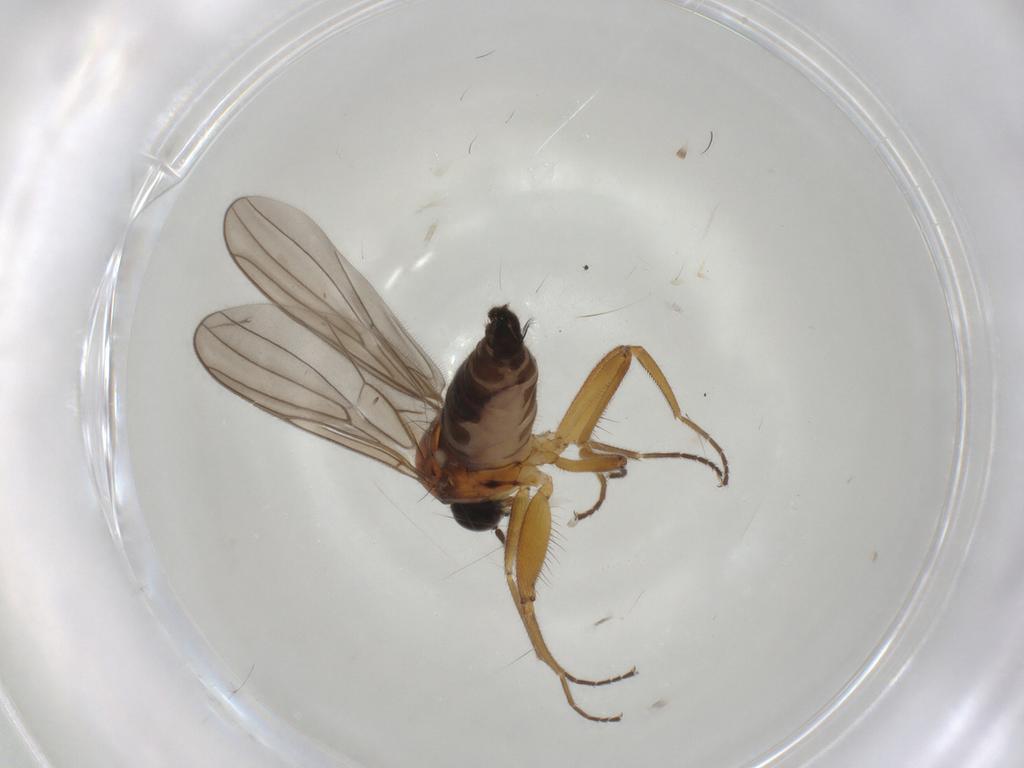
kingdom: Animalia
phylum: Arthropoda
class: Insecta
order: Diptera
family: Hybotidae
